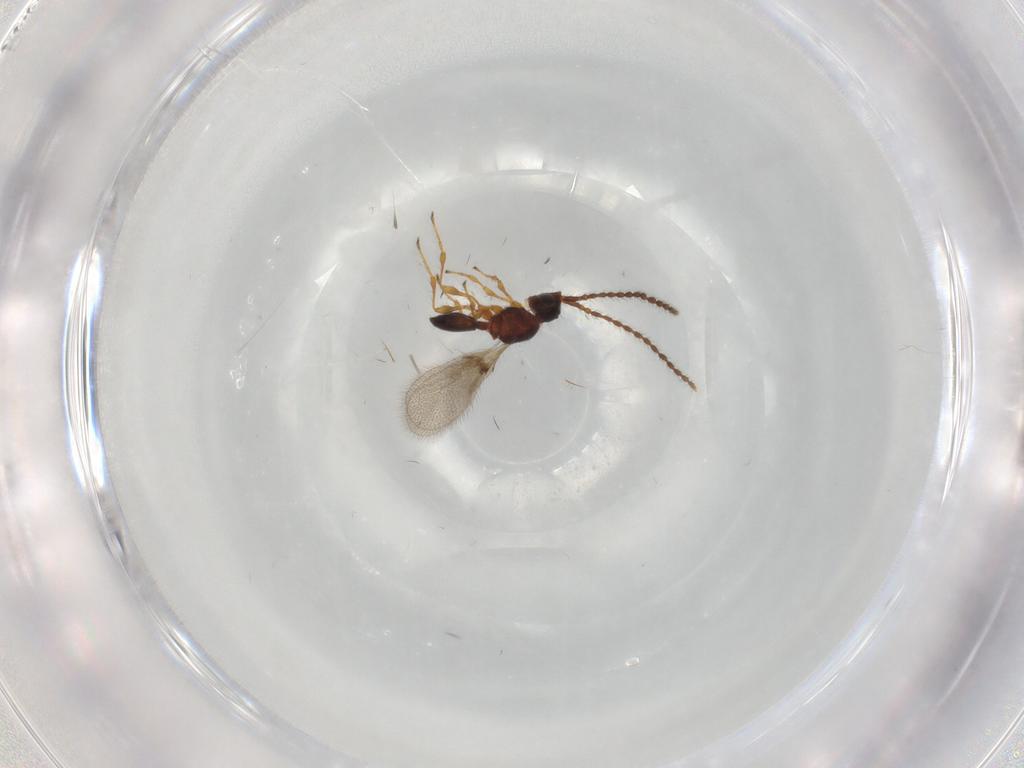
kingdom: Animalia
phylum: Arthropoda
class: Insecta
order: Hymenoptera
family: Diapriidae
